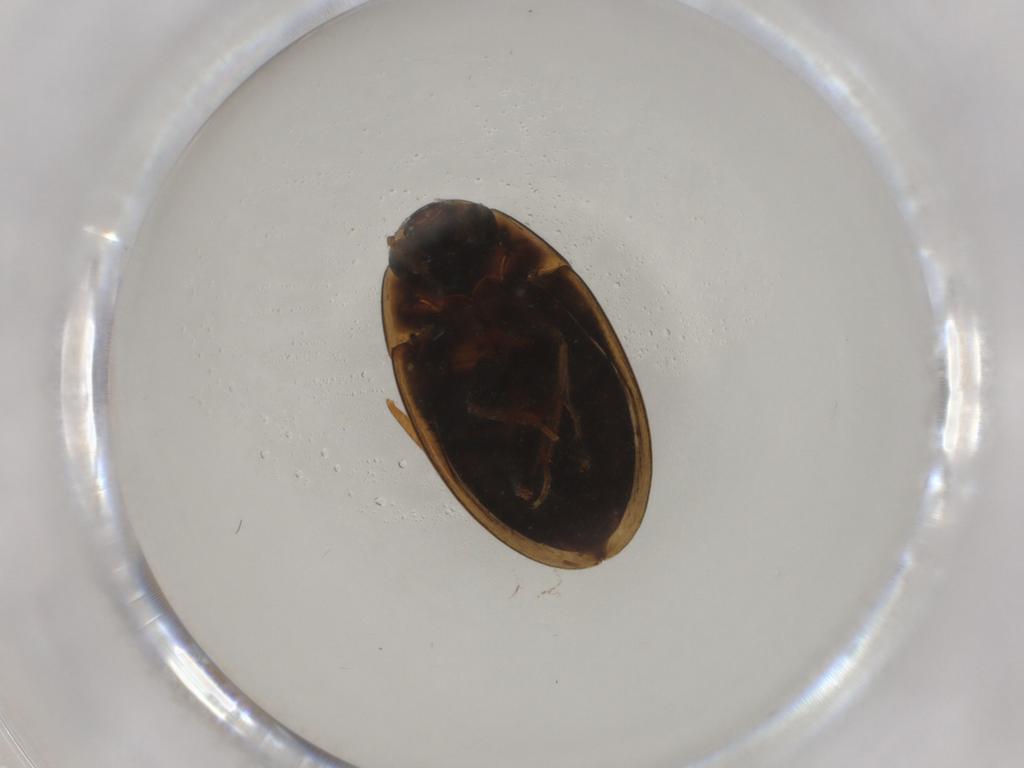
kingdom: Animalia
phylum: Arthropoda
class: Insecta
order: Coleoptera
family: Hydrophilidae
